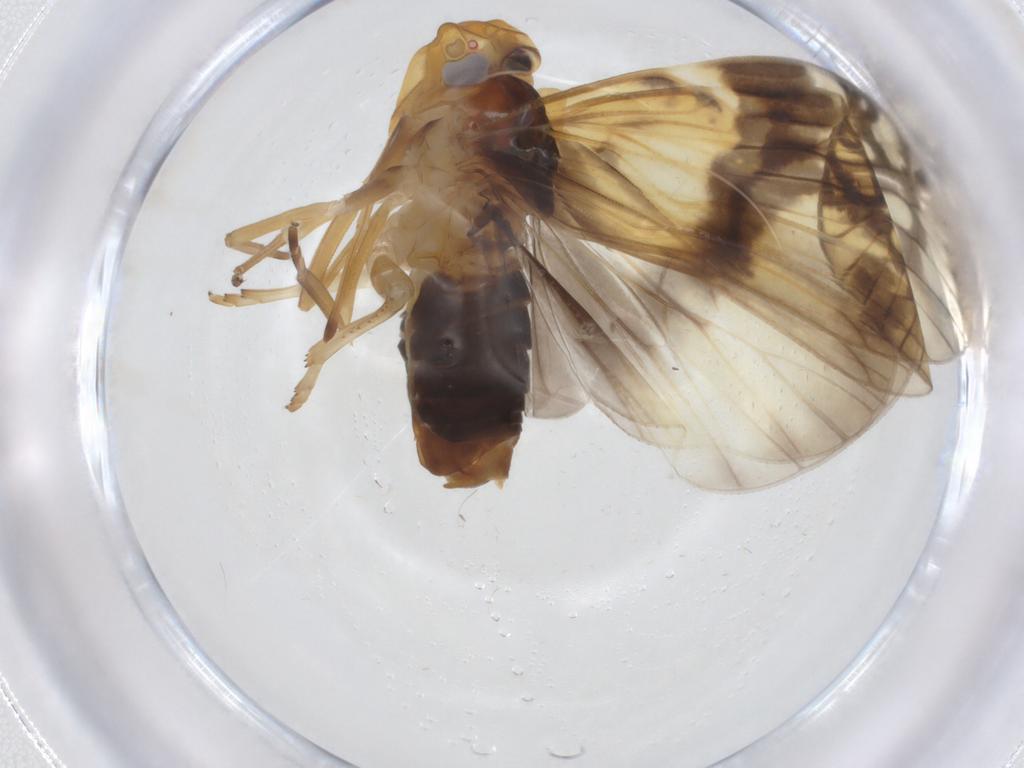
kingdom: Animalia
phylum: Arthropoda
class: Insecta
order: Hemiptera
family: Cixiidae
